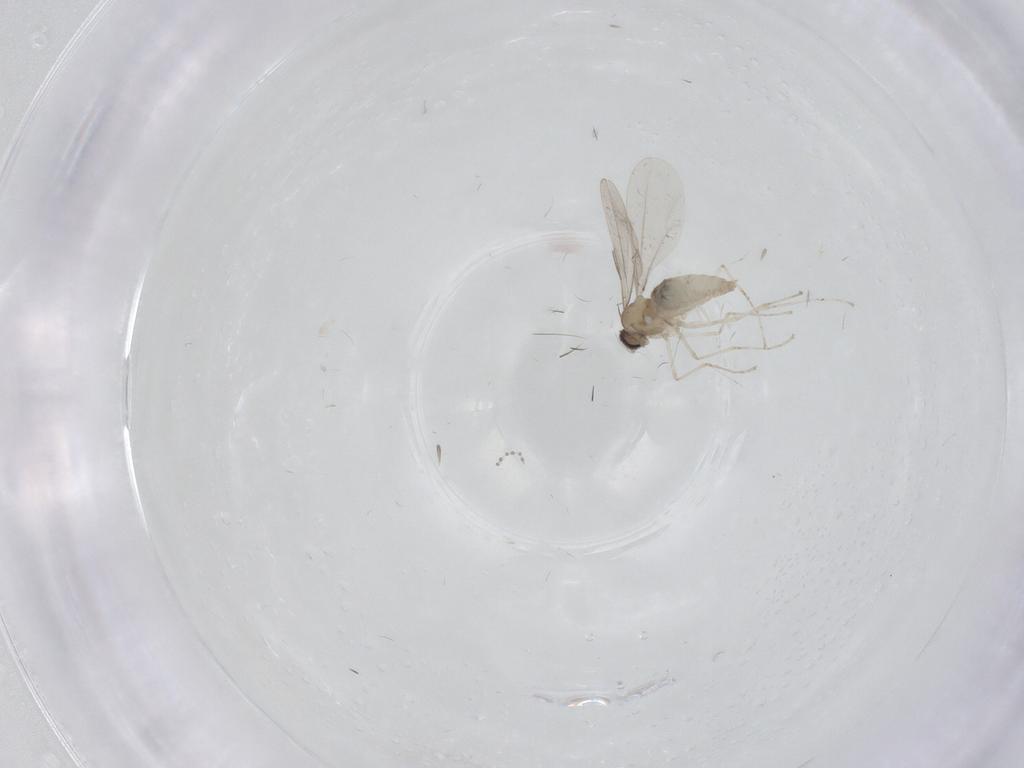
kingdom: Animalia
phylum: Arthropoda
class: Insecta
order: Diptera
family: Cecidomyiidae
